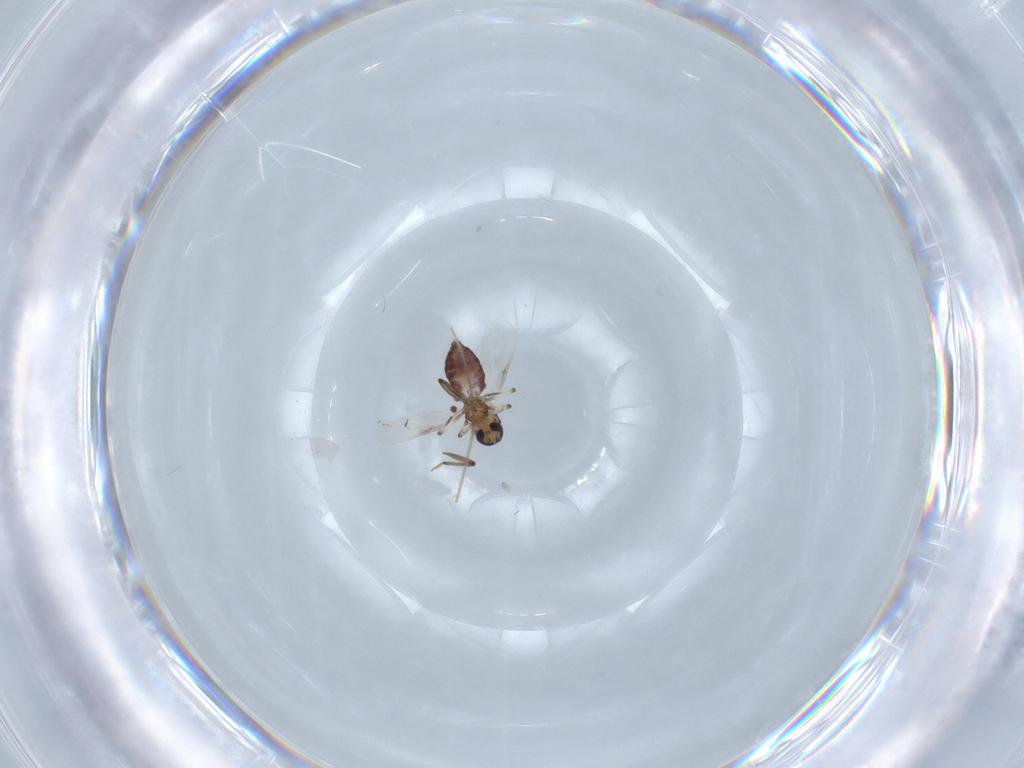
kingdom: Animalia
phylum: Arthropoda
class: Insecta
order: Diptera
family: Chironomidae
